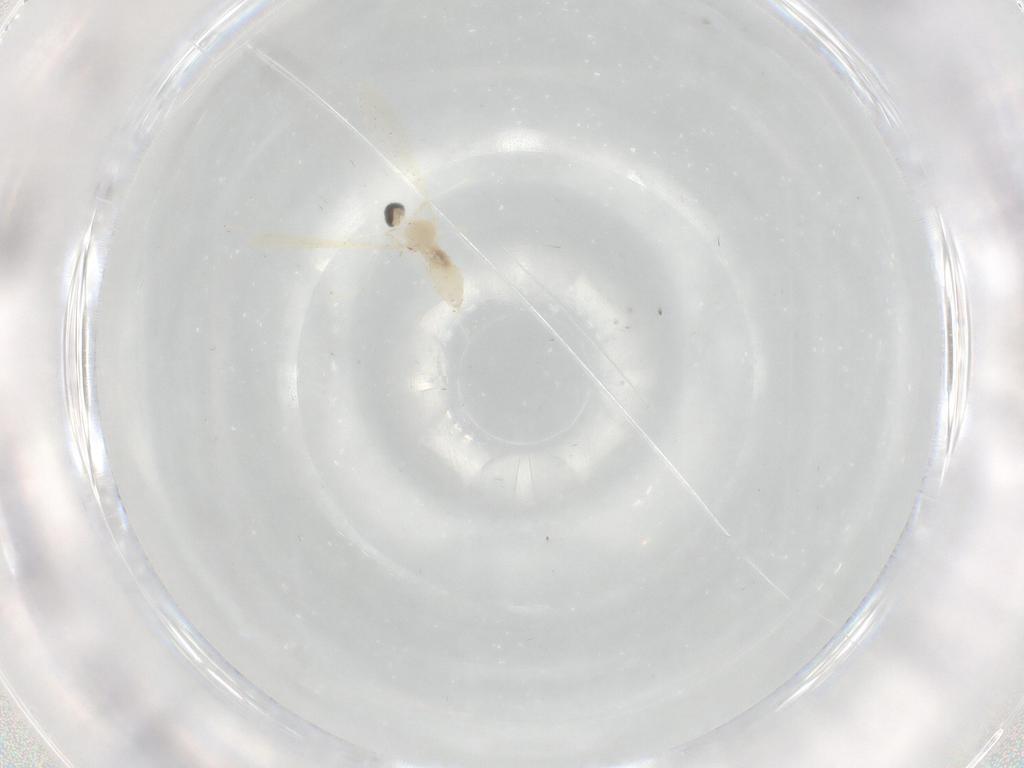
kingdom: Animalia
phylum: Arthropoda
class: Insecta
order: Diptera
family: Cecidomyiidae
